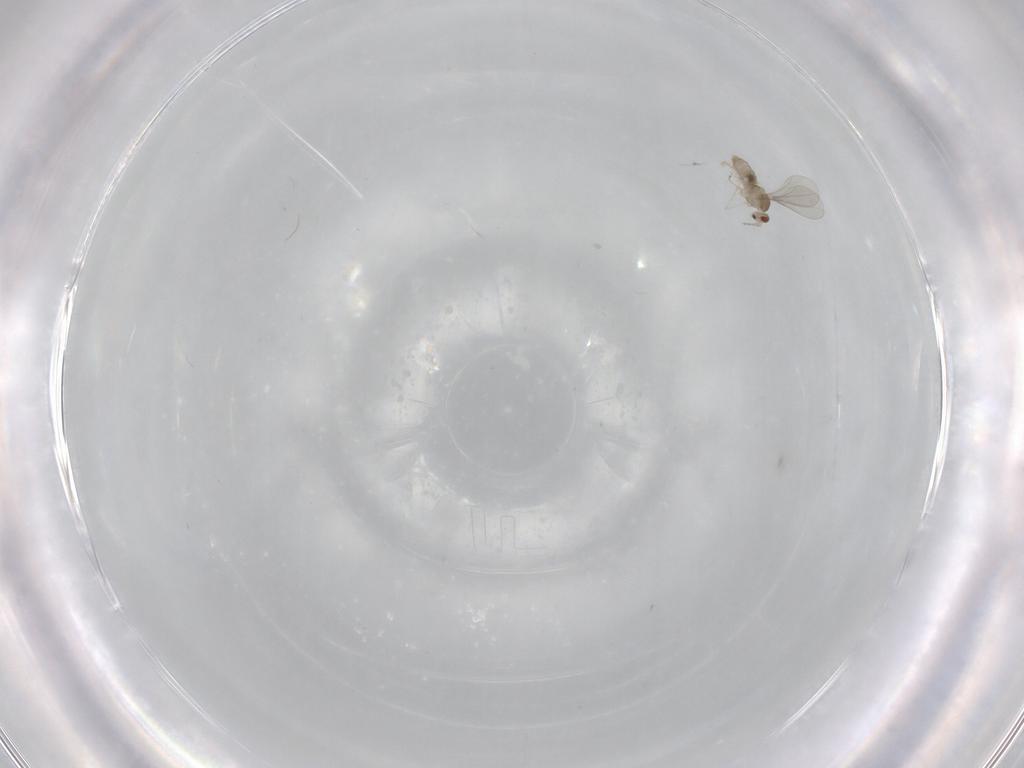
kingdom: Animalia
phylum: Arthropoda
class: Insecta
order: Diptera
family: Cecidomyiidae
